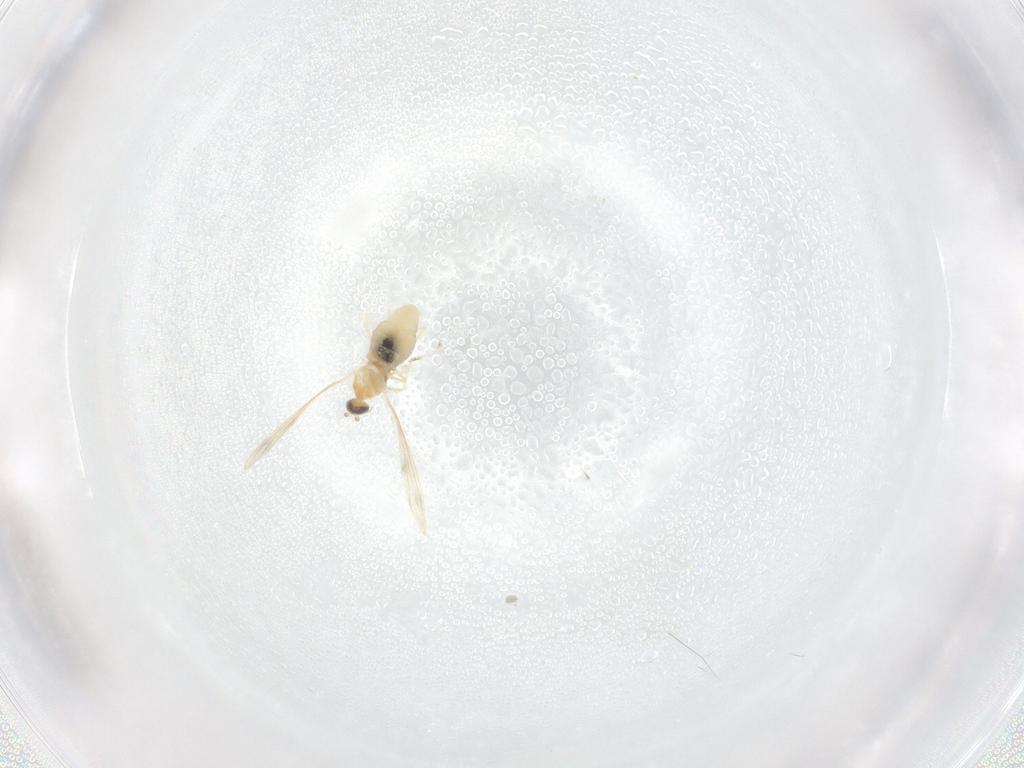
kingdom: Animalia
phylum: Arthropoda
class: Insecta
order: Diptera
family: Cecidomyiidae
